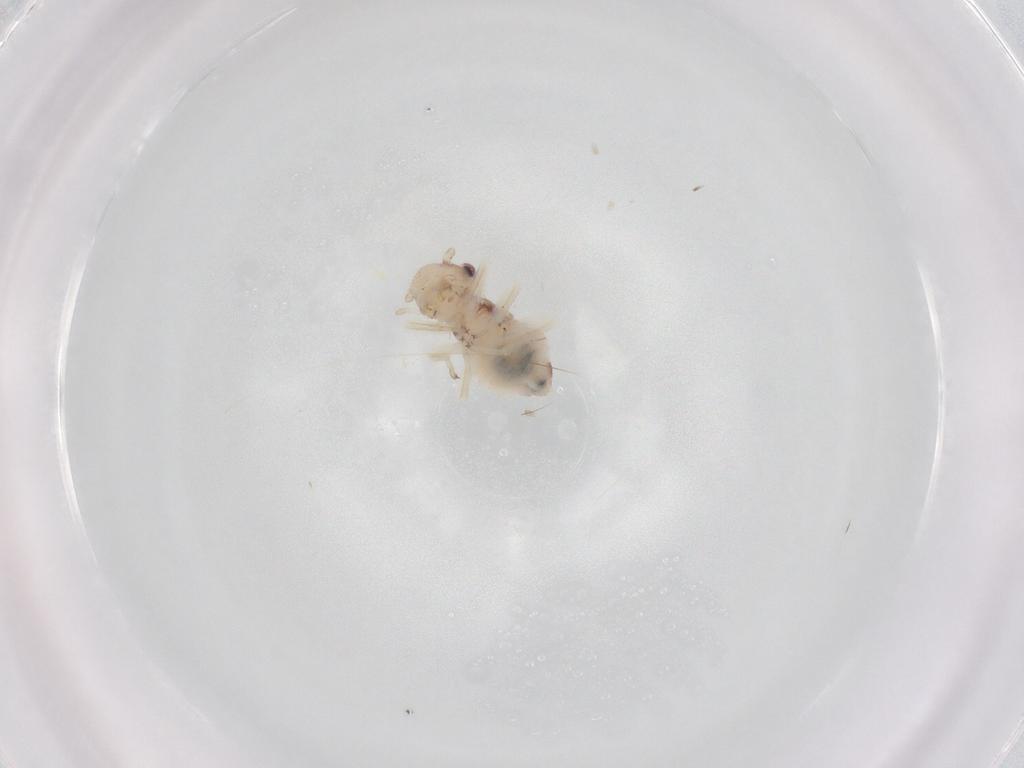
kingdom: Animalia
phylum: Arthropoda
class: Insecta
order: Psocodea
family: Amphipsocidae
